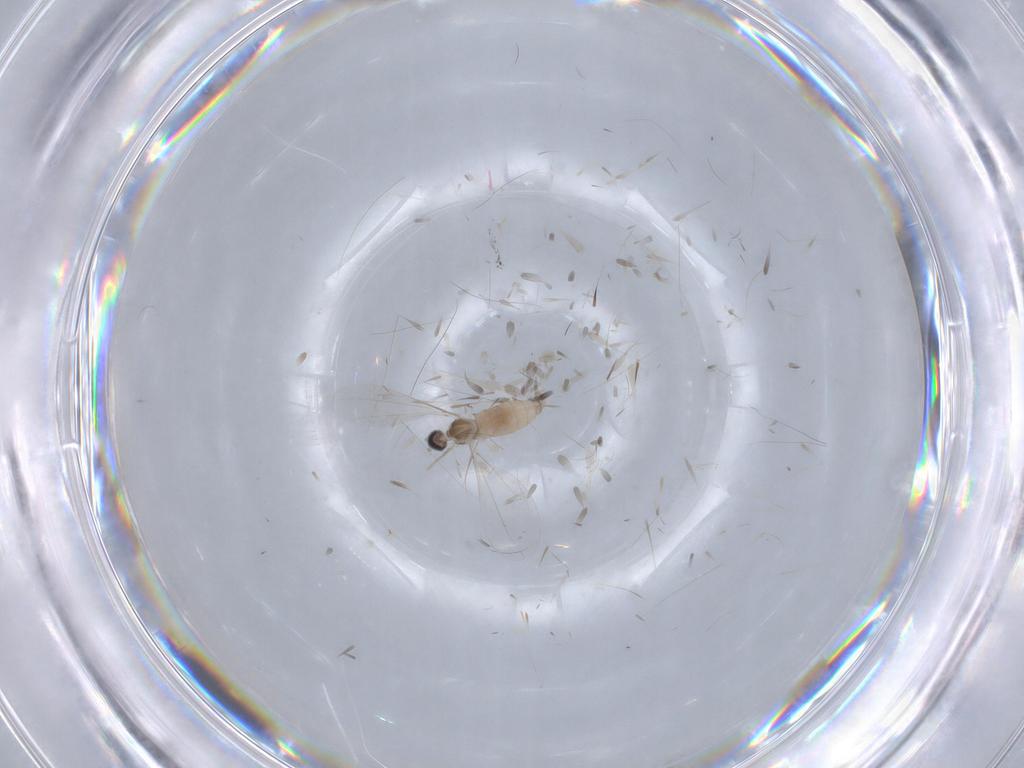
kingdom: Animalia
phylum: Arthropoda
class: Insecta
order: Diptera
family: Cecidomyiidae
